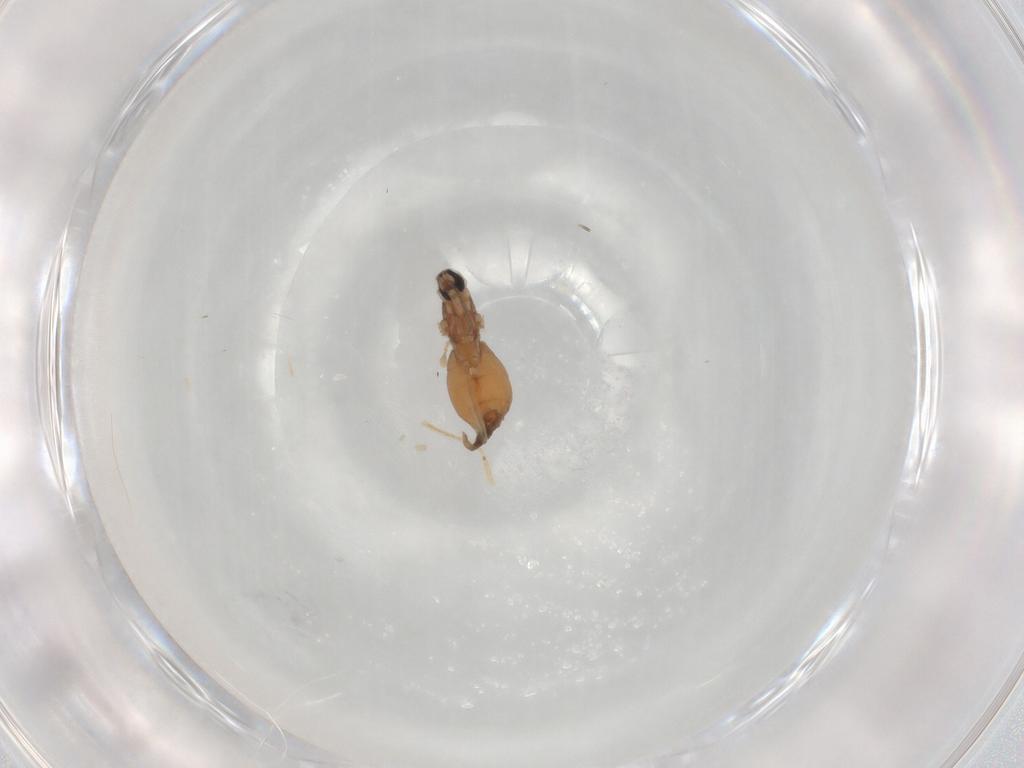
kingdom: Animalia
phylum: Arthropoda
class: Insecta
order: Diptera
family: Cecidomyiidae
